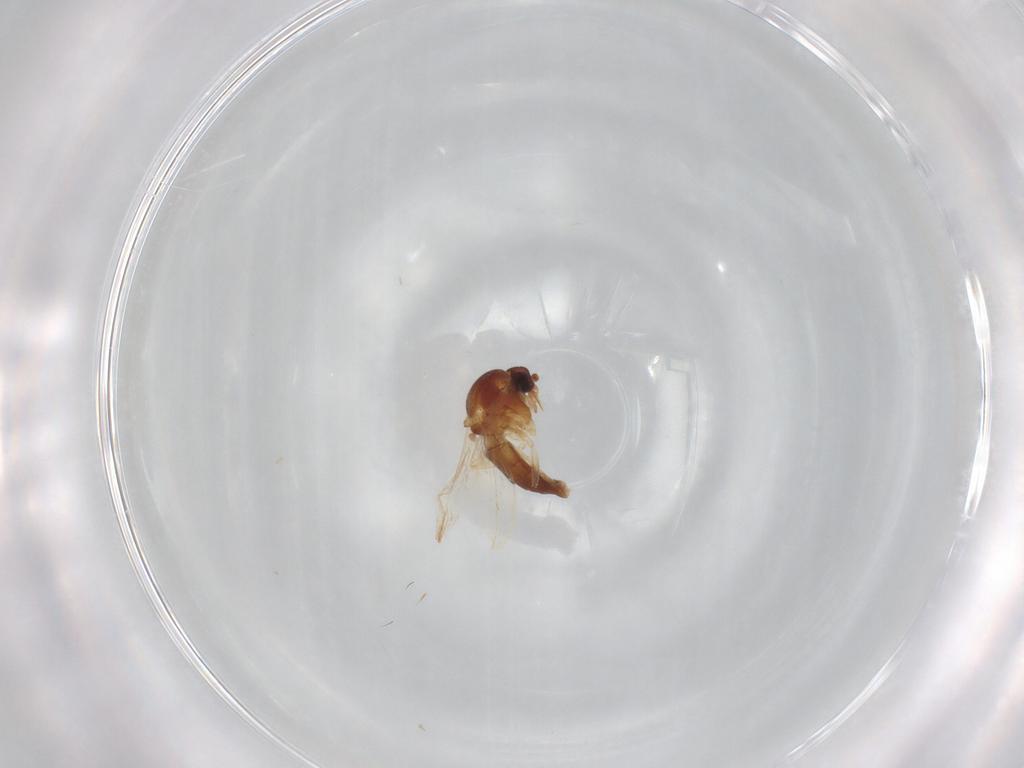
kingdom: Animalia
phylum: Arthropoda
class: Insecta
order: Diptera
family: Ceratopogonidae
